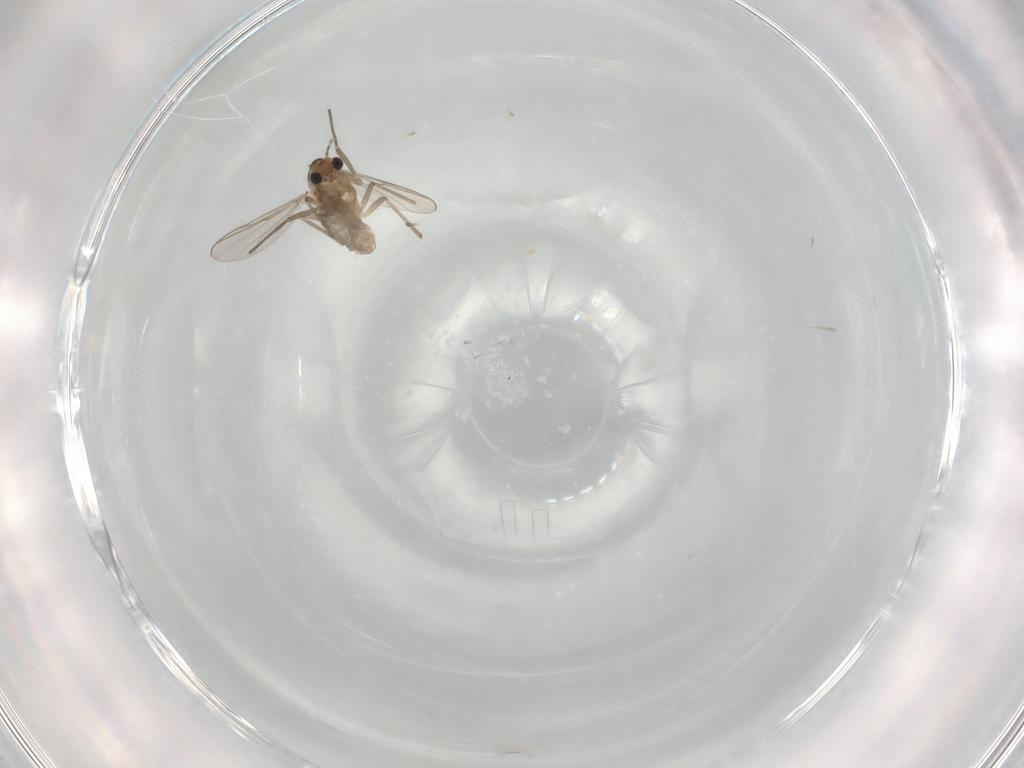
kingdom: Animalia
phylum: Arthropoda
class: Insecta
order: Diptera
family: Chironomidae
